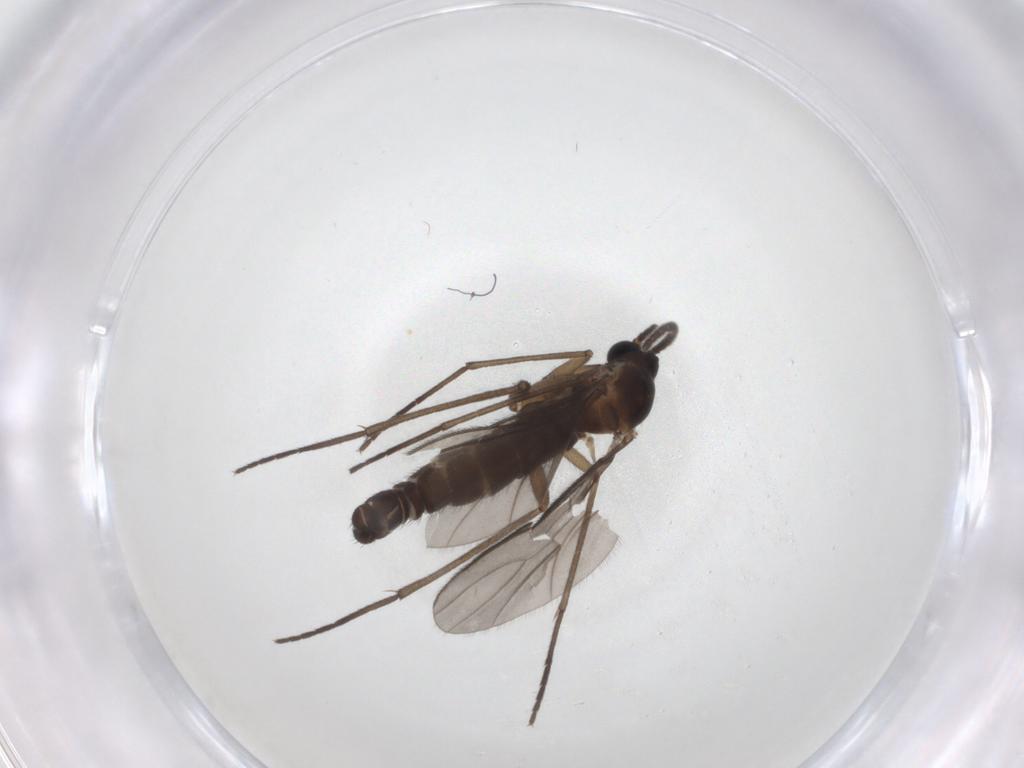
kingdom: Animalia
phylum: Arthropoda
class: Insecta
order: Diptera
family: Sciaridae
